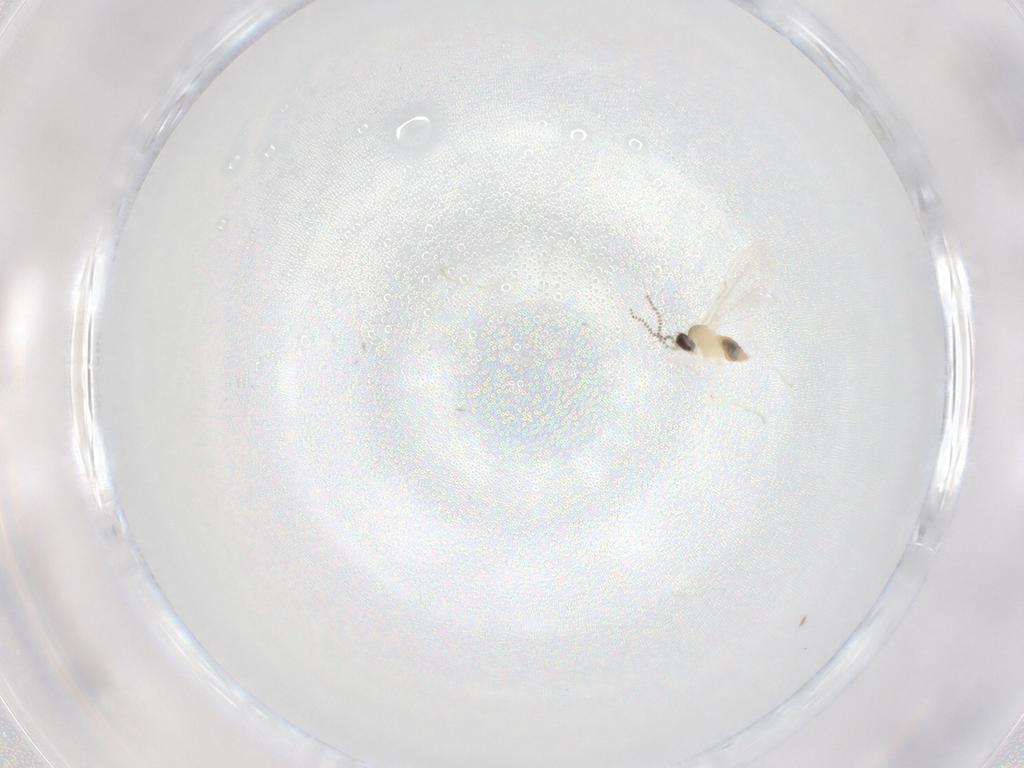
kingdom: Animalia
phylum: Arthropoda
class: Insecta
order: Diptera
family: Cecidomyiidae
